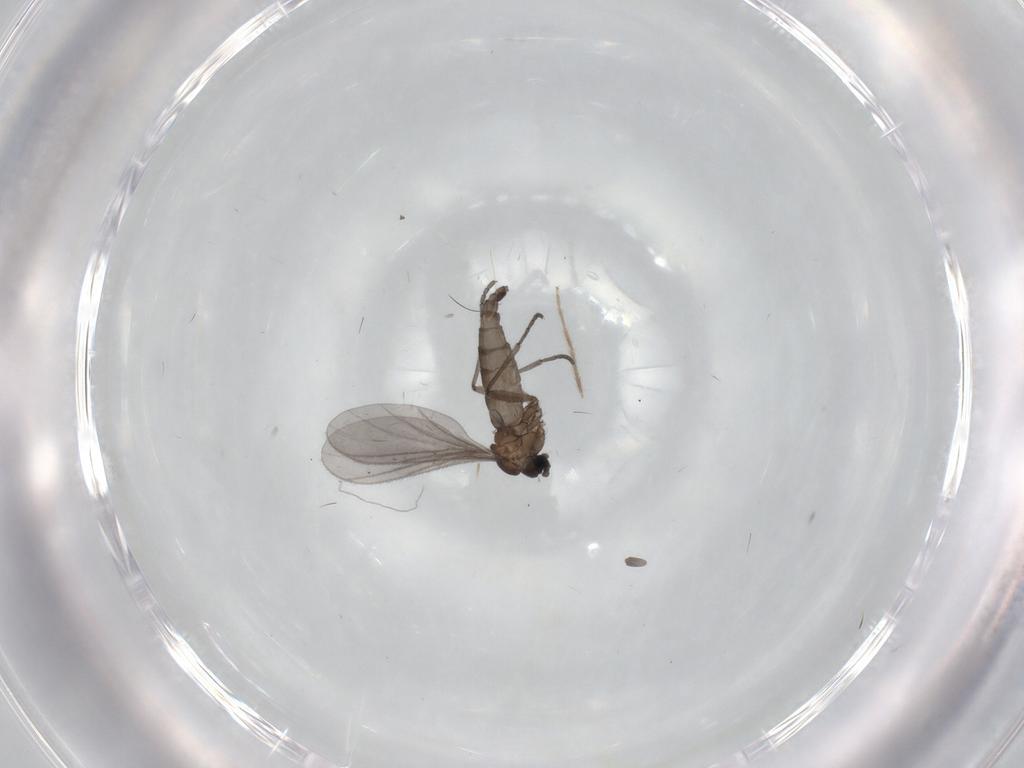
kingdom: Animalia
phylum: Arthropoda
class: Insecta
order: Diptera
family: Sciaridae
